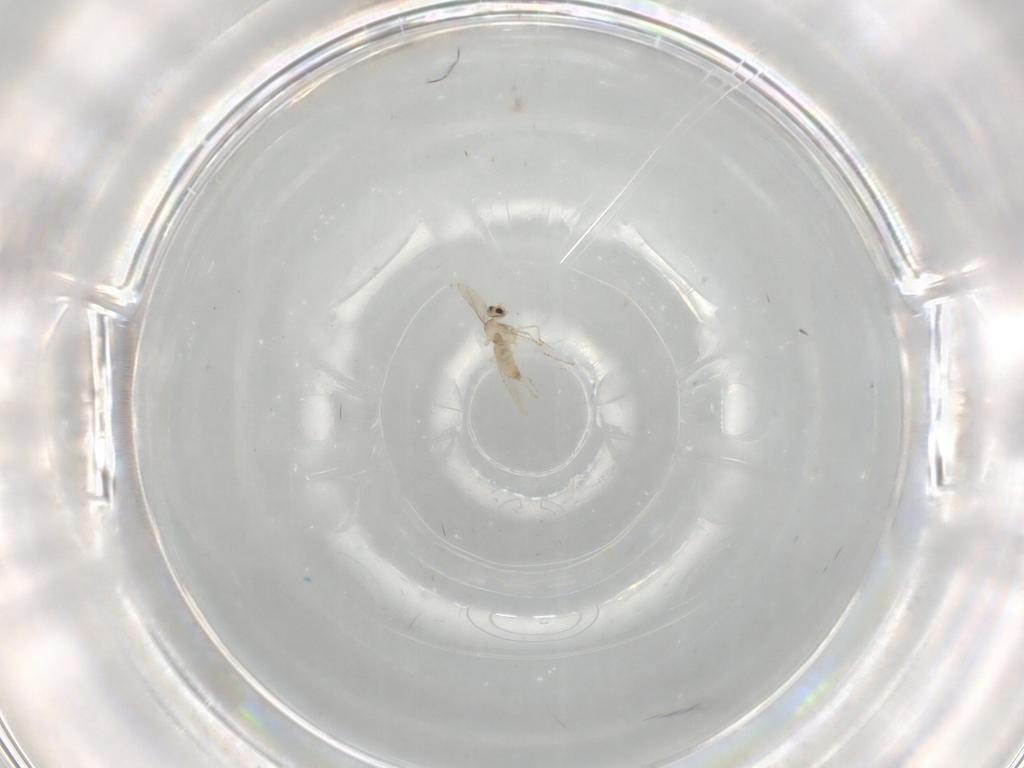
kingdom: Animalia
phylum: Arthropoda
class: Insecta
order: Diptera
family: Cecidomyiidae
